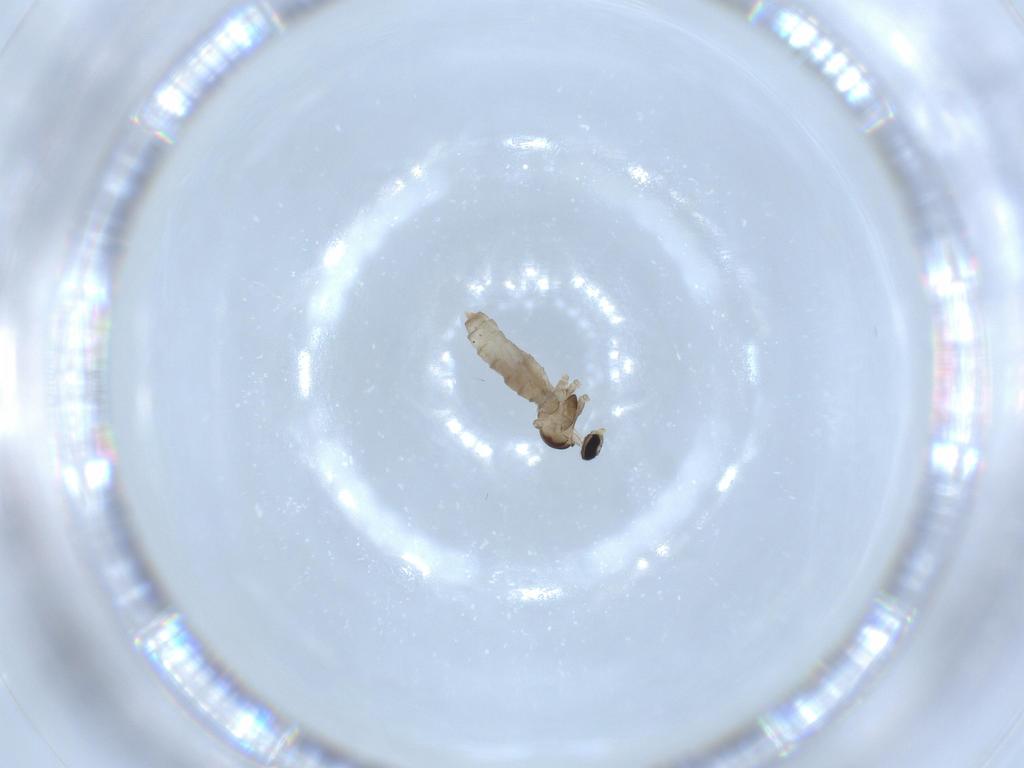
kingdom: Animalia
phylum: Arthropoda
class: Insecta
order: Diptera
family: Cecidomyiidae
